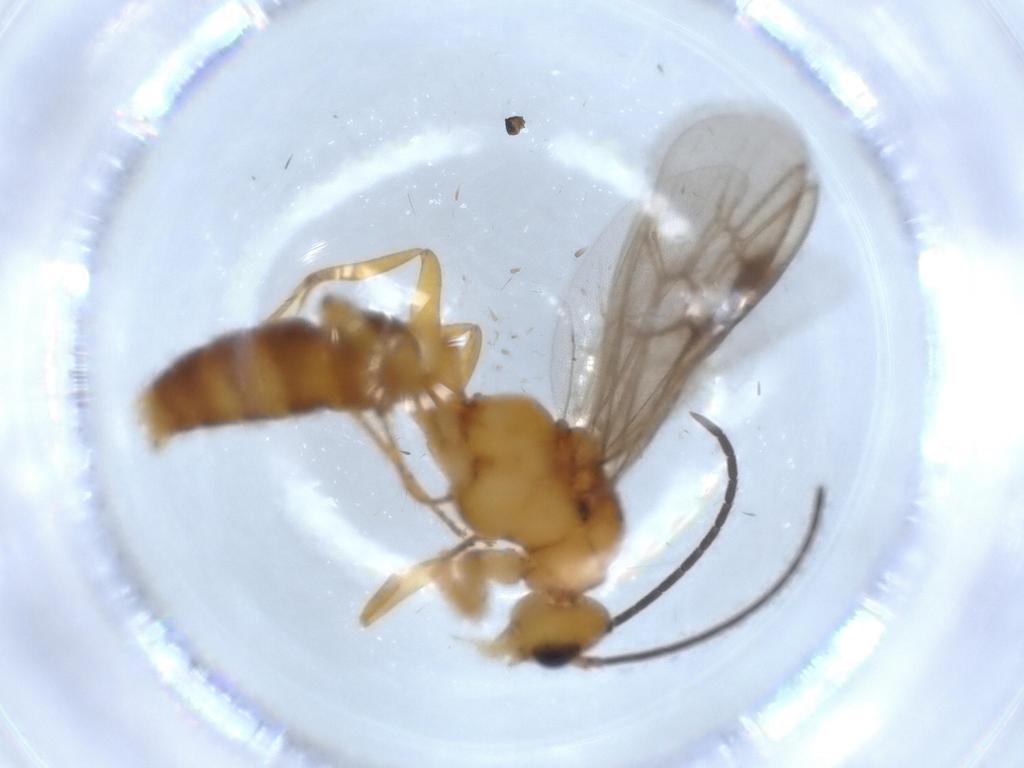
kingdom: Animalia
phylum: Arthropoda
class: Insecta
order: Hymenoptera
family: Formicidae
